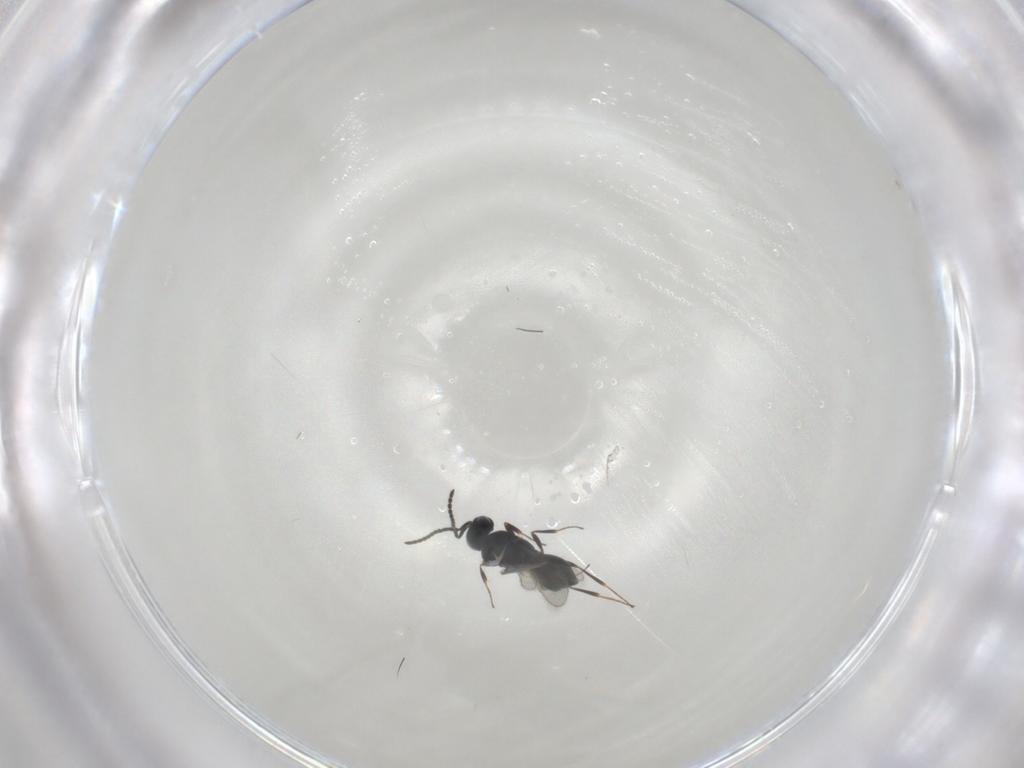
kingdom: Animalia
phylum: Arthropoda
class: Insecta
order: Hymenoptera
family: Scelionidae
